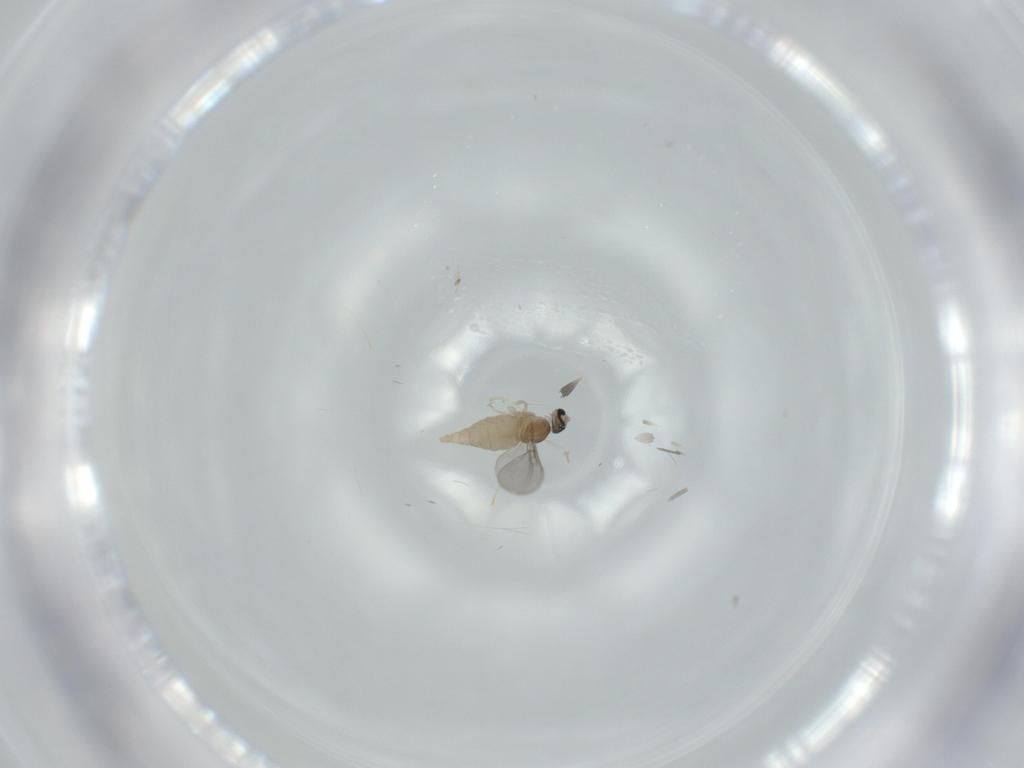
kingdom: Animalia
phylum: Arthropoda
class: Insecta
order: Diptera
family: Cecidomyiidae
